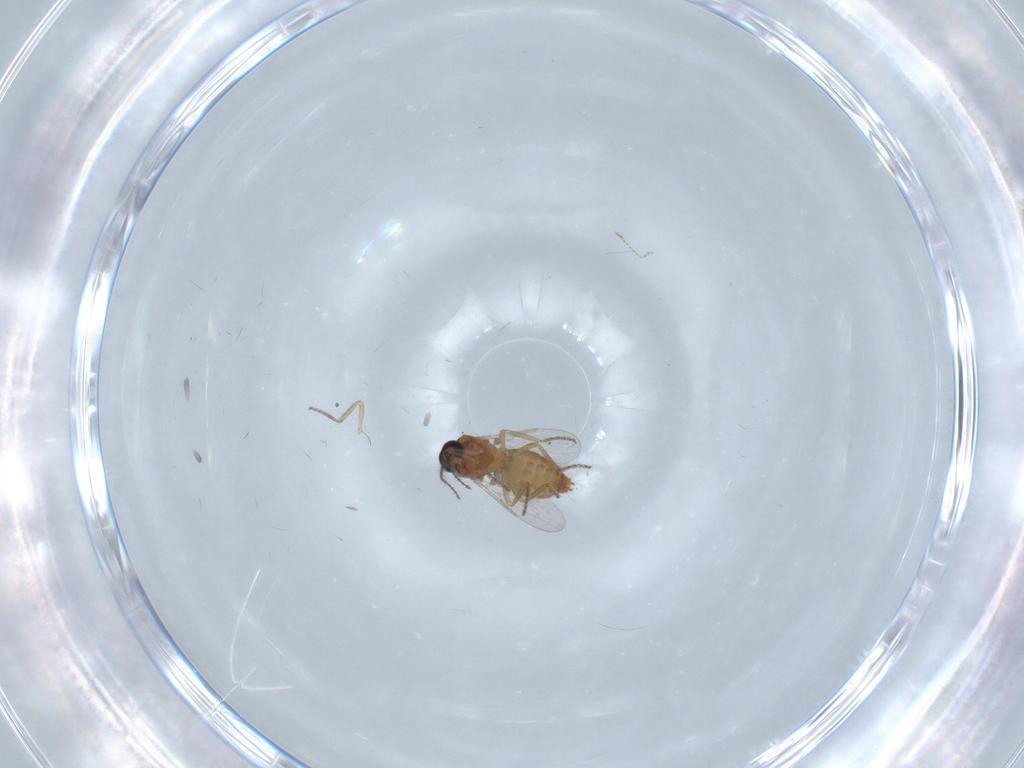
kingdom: Animalia
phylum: Arthropoda
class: Insecta
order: Diptera
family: Ceratopogonidae
